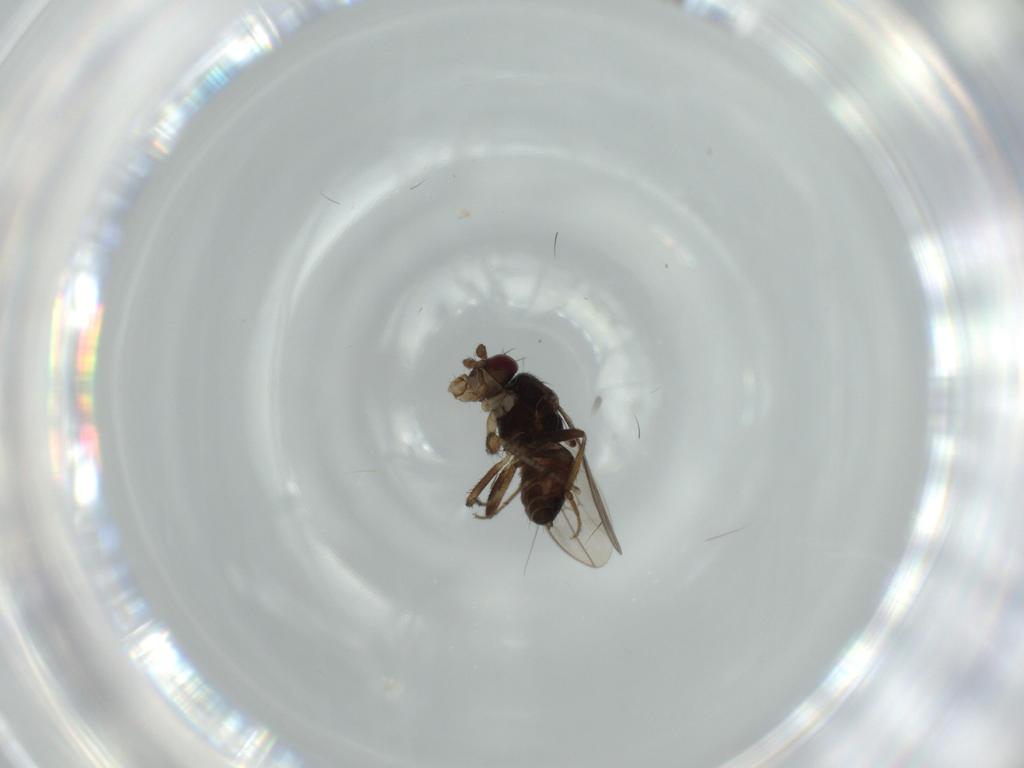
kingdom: Animalia
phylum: Arthropoda
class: Insecta
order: Diptera
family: Sphaeroceridae
